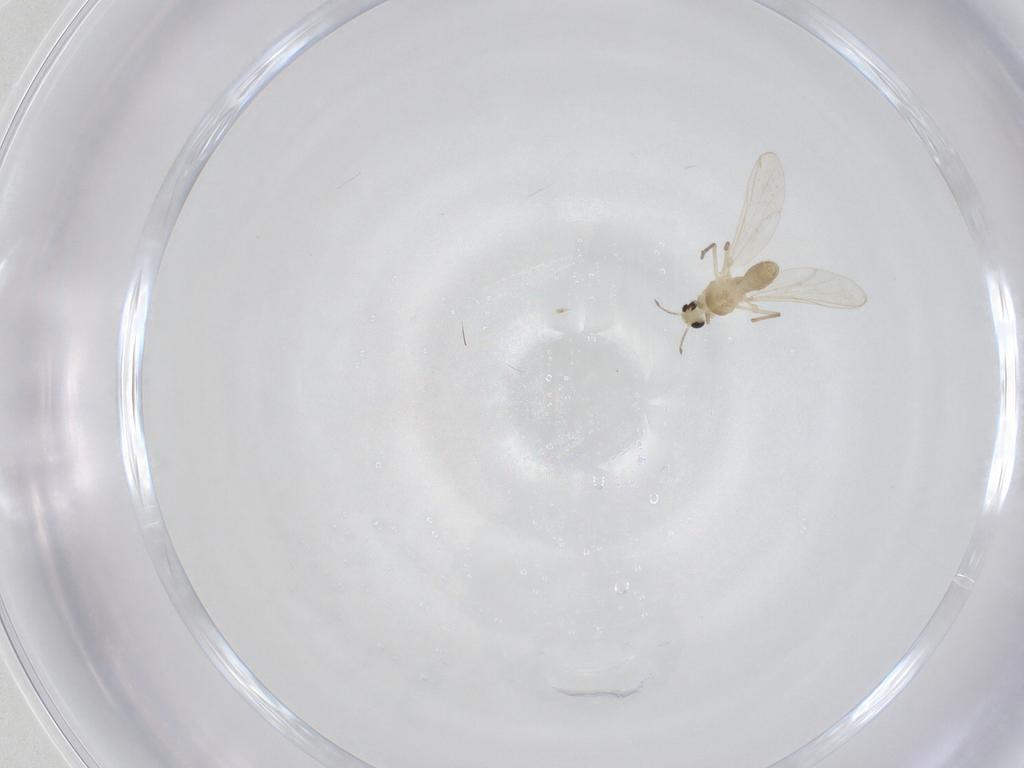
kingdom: Animalia
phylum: Arthropoda
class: Insecta
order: Diptera
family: Chironomidae
